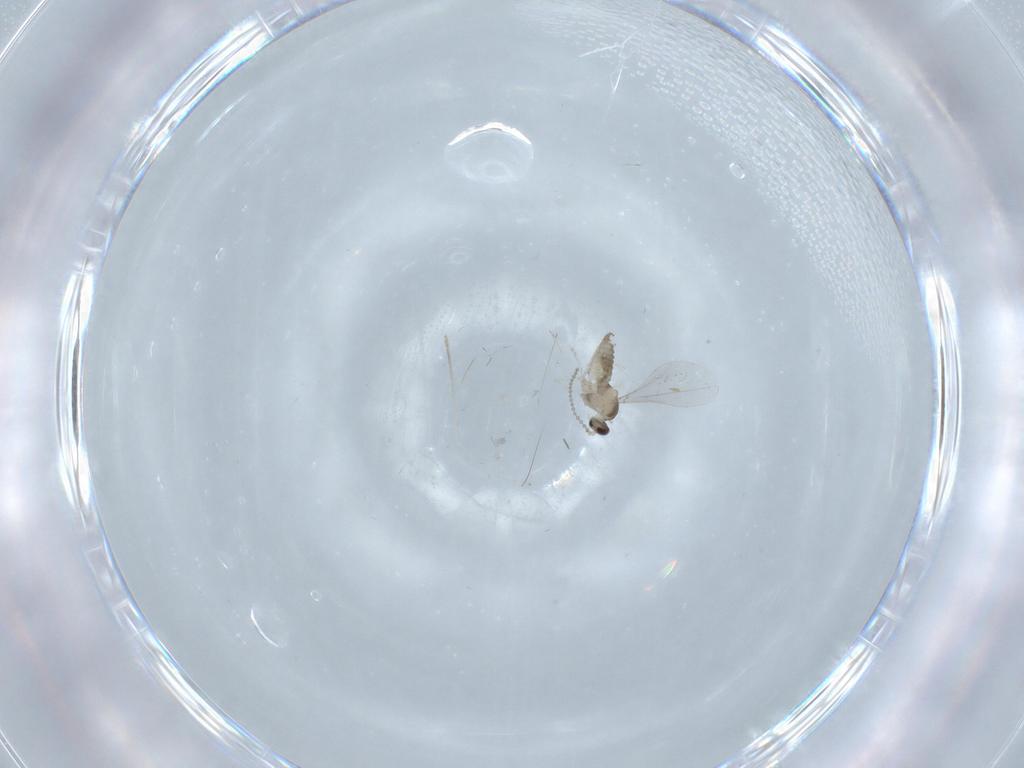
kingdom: Animalia
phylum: Arthropoda
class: Insecta
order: Diptera
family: Cecidomyiidae
